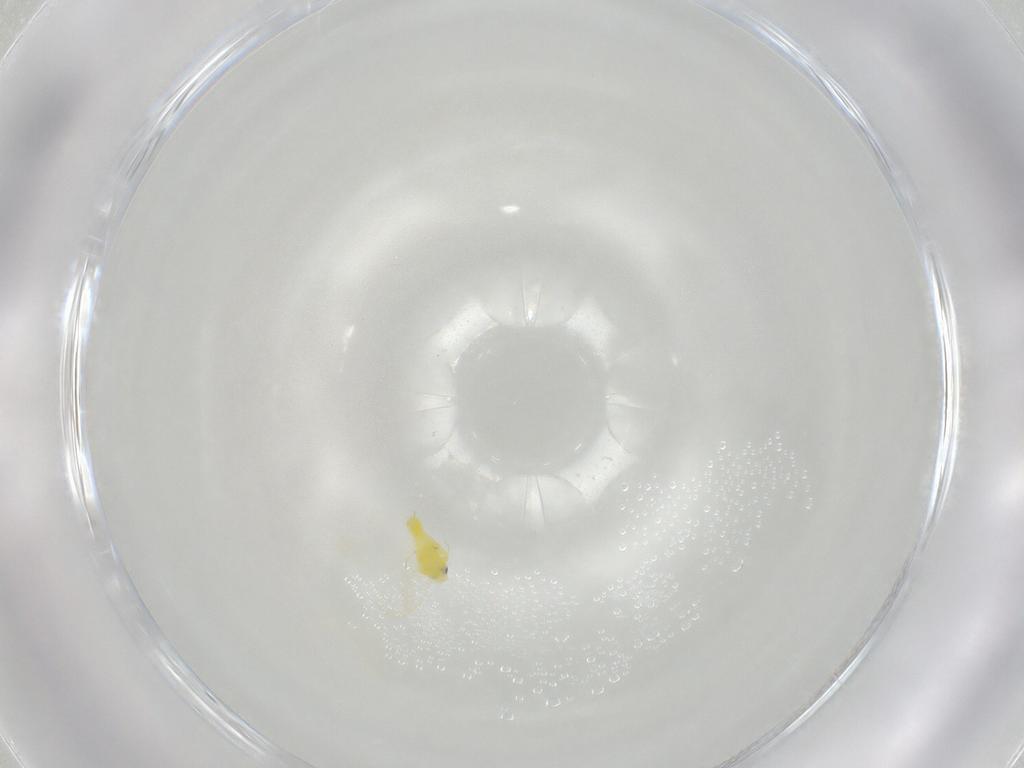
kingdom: Animalia
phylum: Arthropoda
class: Insecta
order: Hemiptera
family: Aleyrodidae
